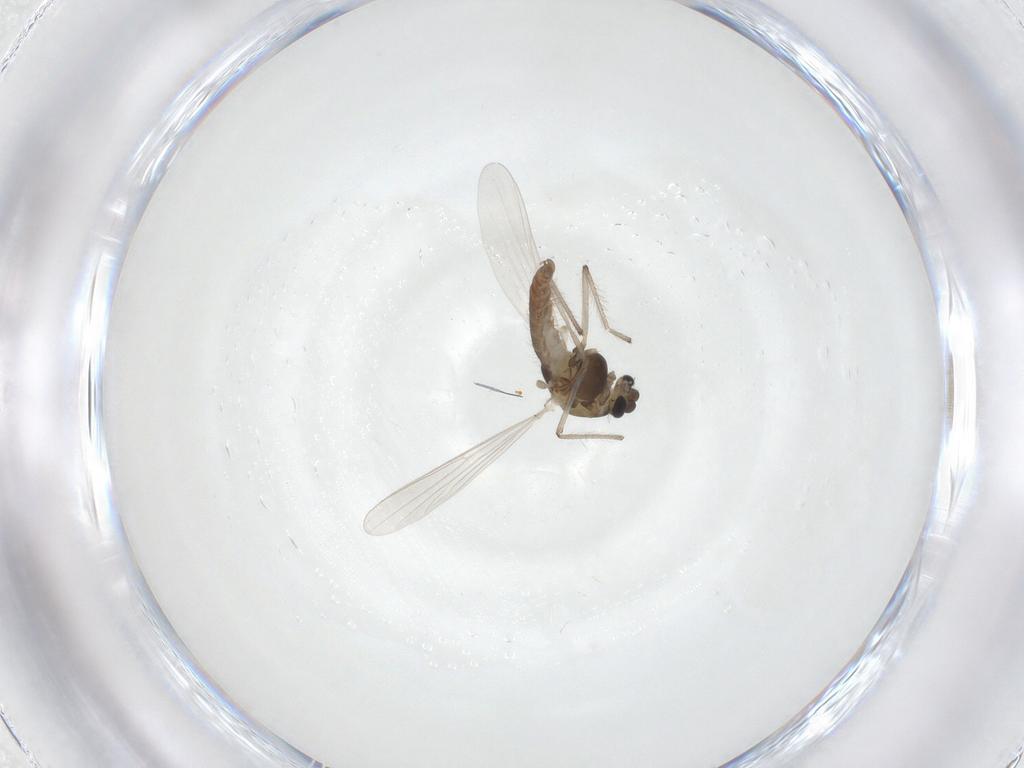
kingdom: Animalia
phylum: Arthropoda
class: Insecta
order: Diptera
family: Chironomidae
